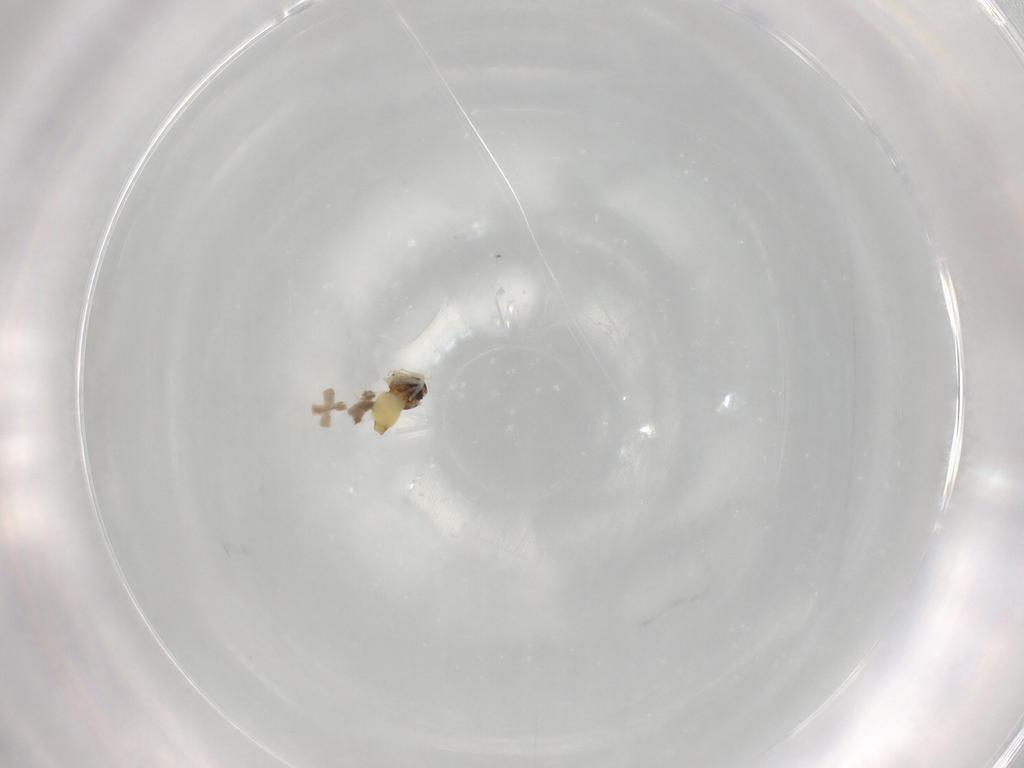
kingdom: Animalia
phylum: Arthropoda
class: Insecta
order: Hemiptera
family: Aleyrodidae
